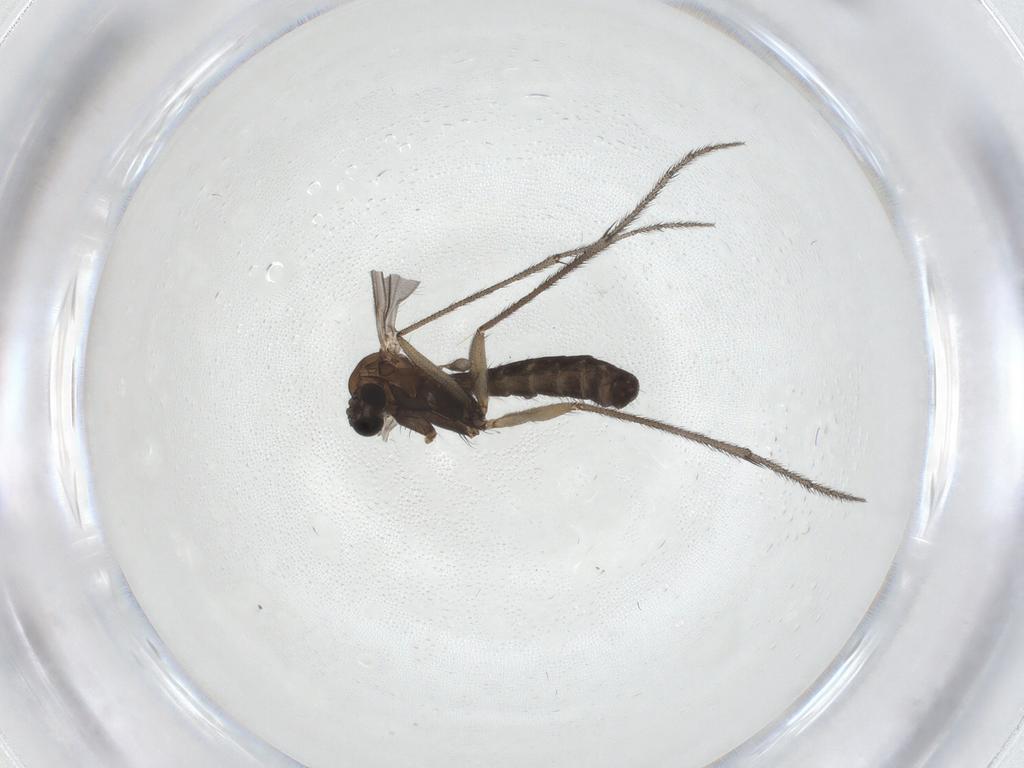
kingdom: Animalia
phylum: Arthropoda
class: Insecta
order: Diptera
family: Ditomyiidae
